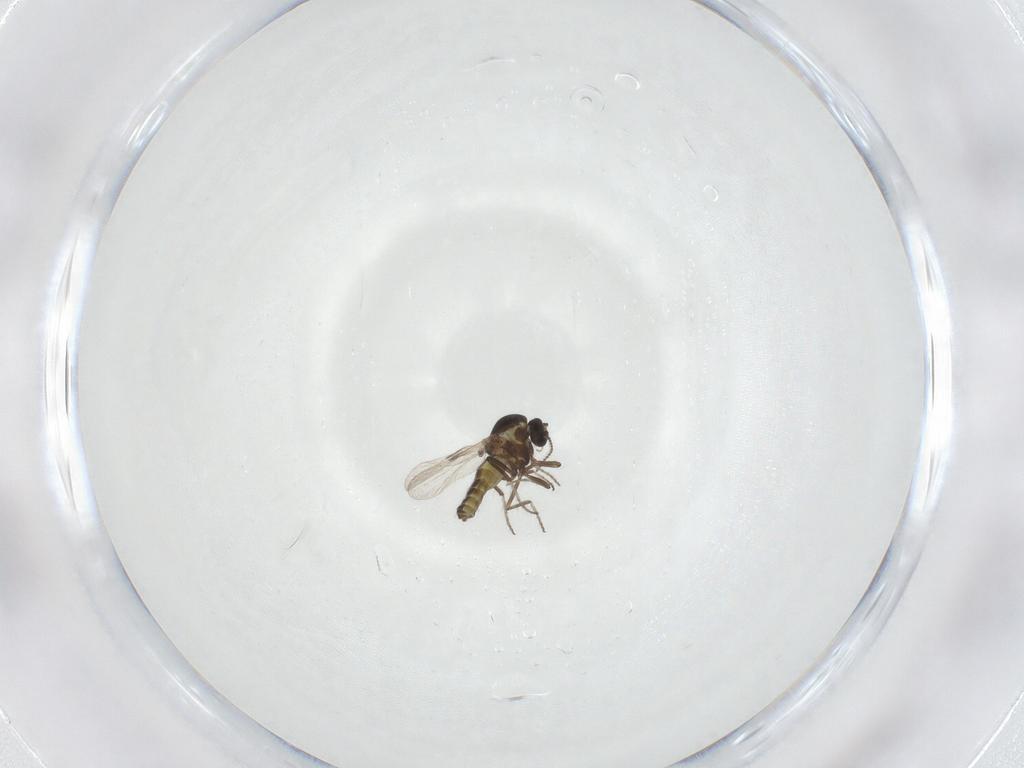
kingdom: Animalia
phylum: Arthropoda
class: Insecta
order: Diptera
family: Ceratopogonidae
